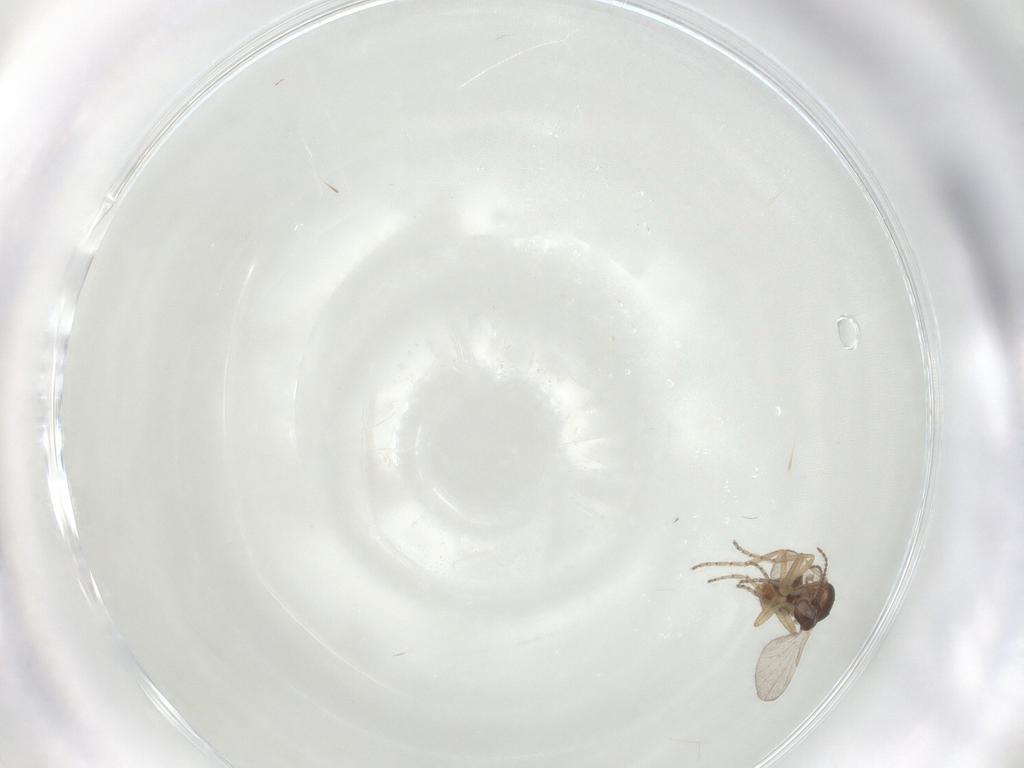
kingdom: Animalia
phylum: Arthropoda
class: Insecta
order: Diptera
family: Ceratopogonidae
